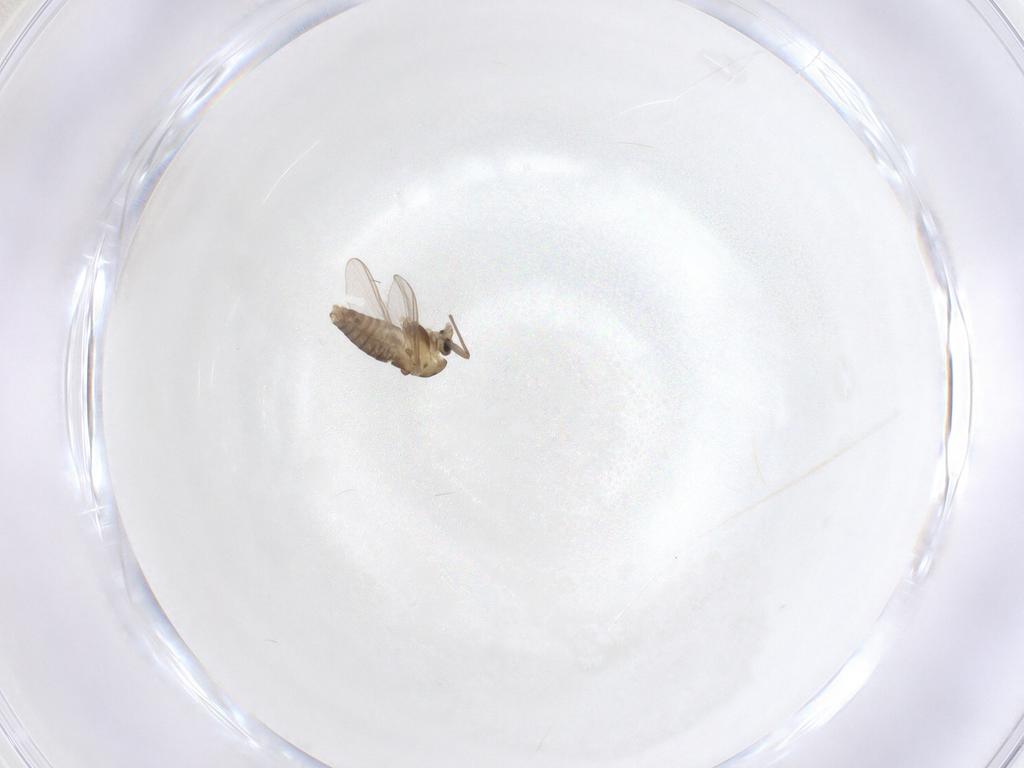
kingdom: Animalia
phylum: Arthropoda
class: Insecta
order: Diptera
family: Chironomidae
